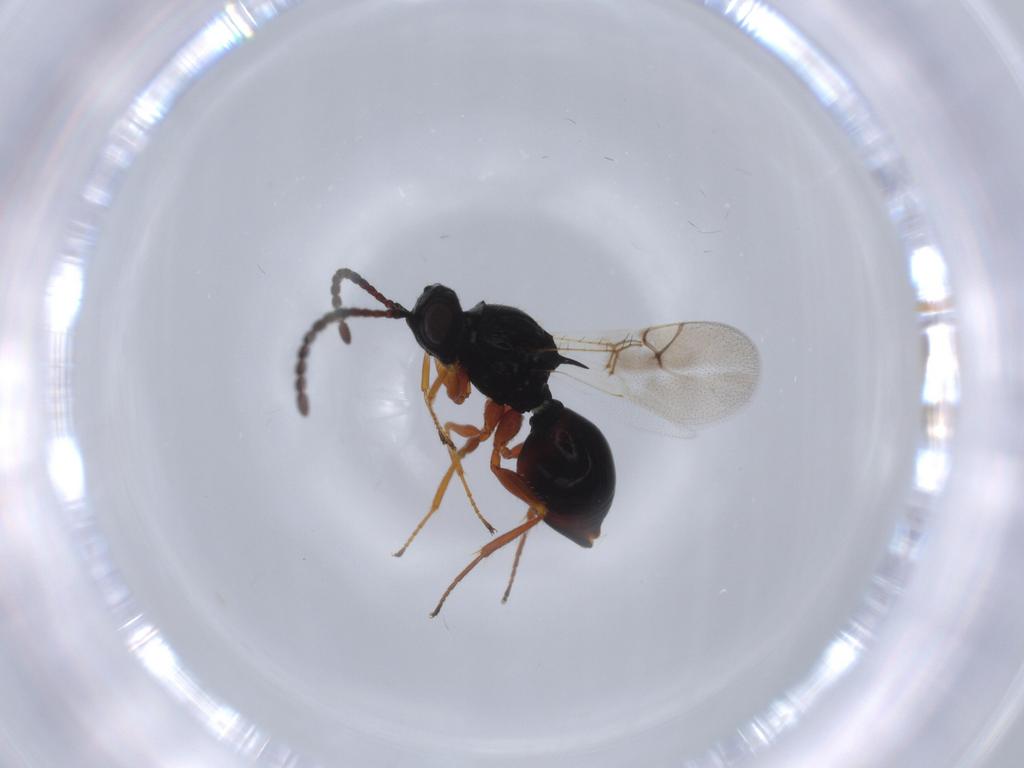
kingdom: Animalia
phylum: Arthropoda
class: Insecta
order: Hymenoptera
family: Figitidae
